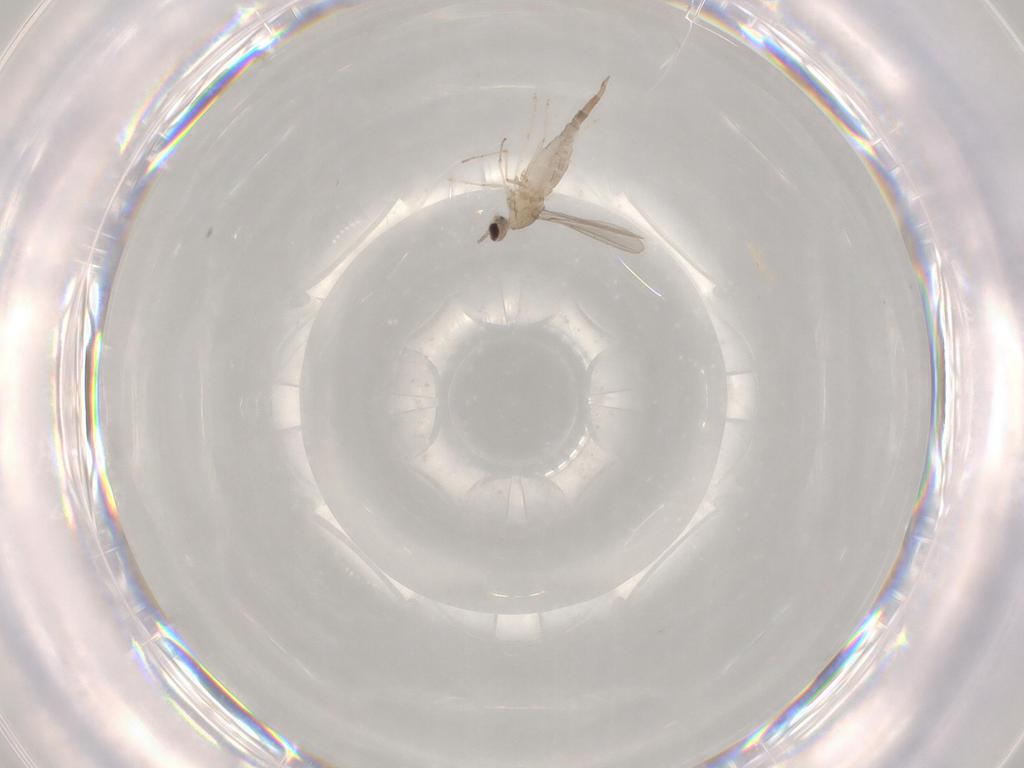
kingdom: Animalia
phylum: Arthropoda
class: Insecta
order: Diptera
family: Cecidomyiidae
